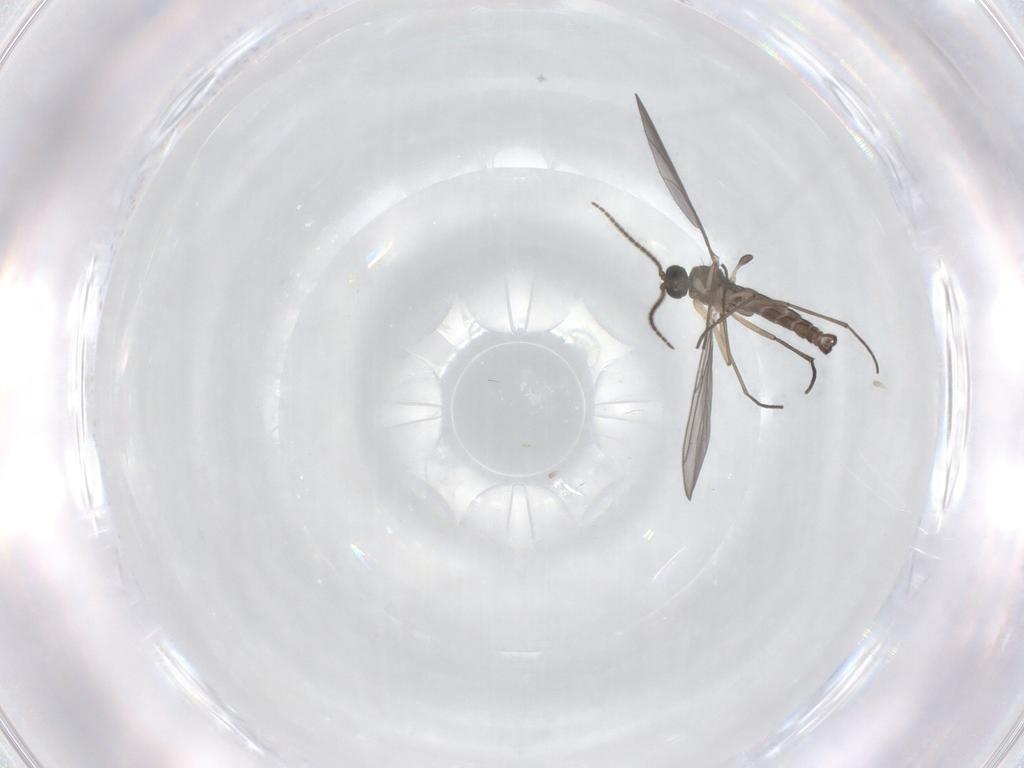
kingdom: Animalia
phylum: Arthropoda
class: Insecta
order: Diptera
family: Sciaridae
